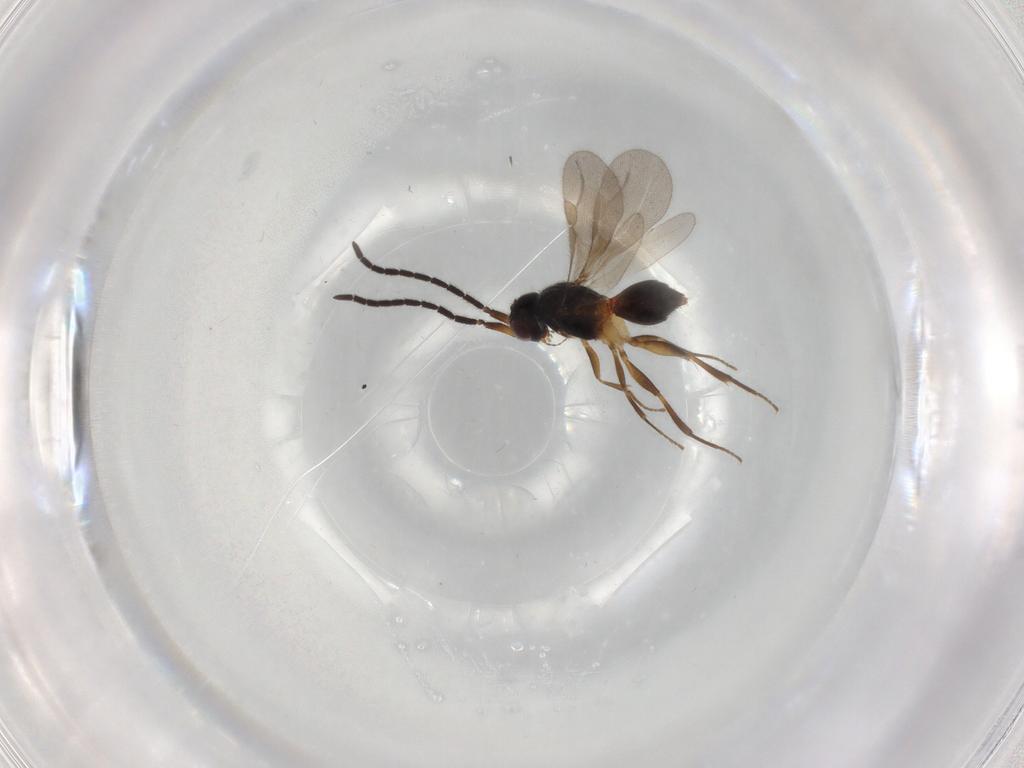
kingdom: Animalia
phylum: Arthropoda
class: Insecta
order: Hymenoptera
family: Megaspilidae
